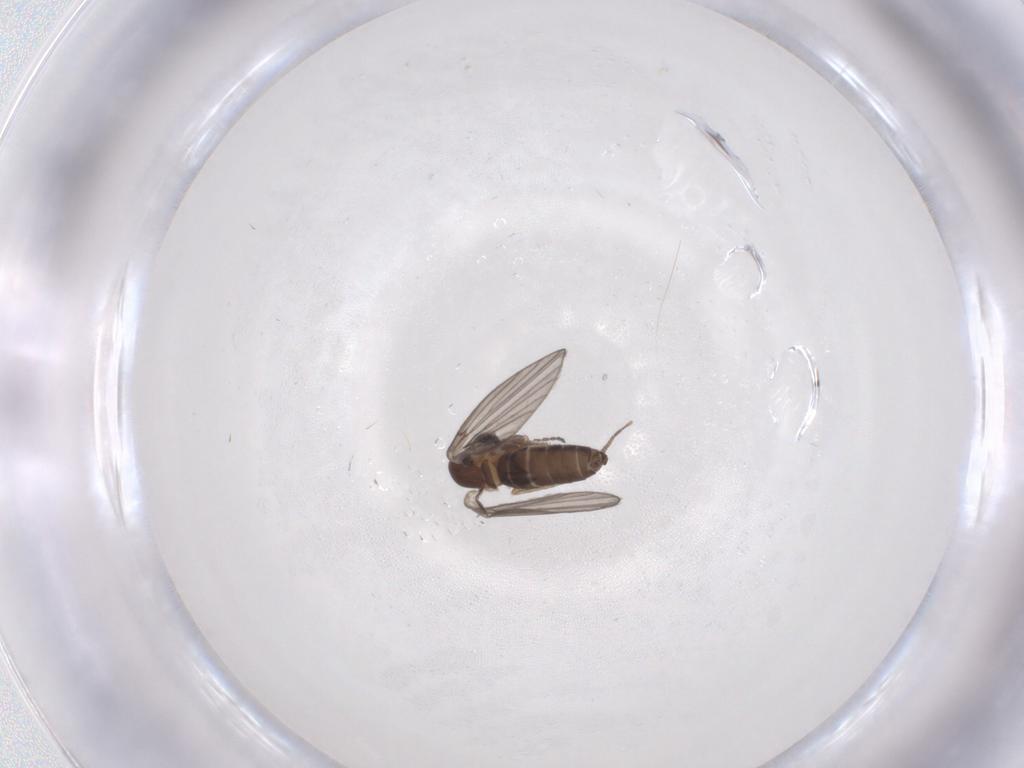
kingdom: Animalia
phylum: Arthropoda
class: Insecta
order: Diptera
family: Psychodidae
